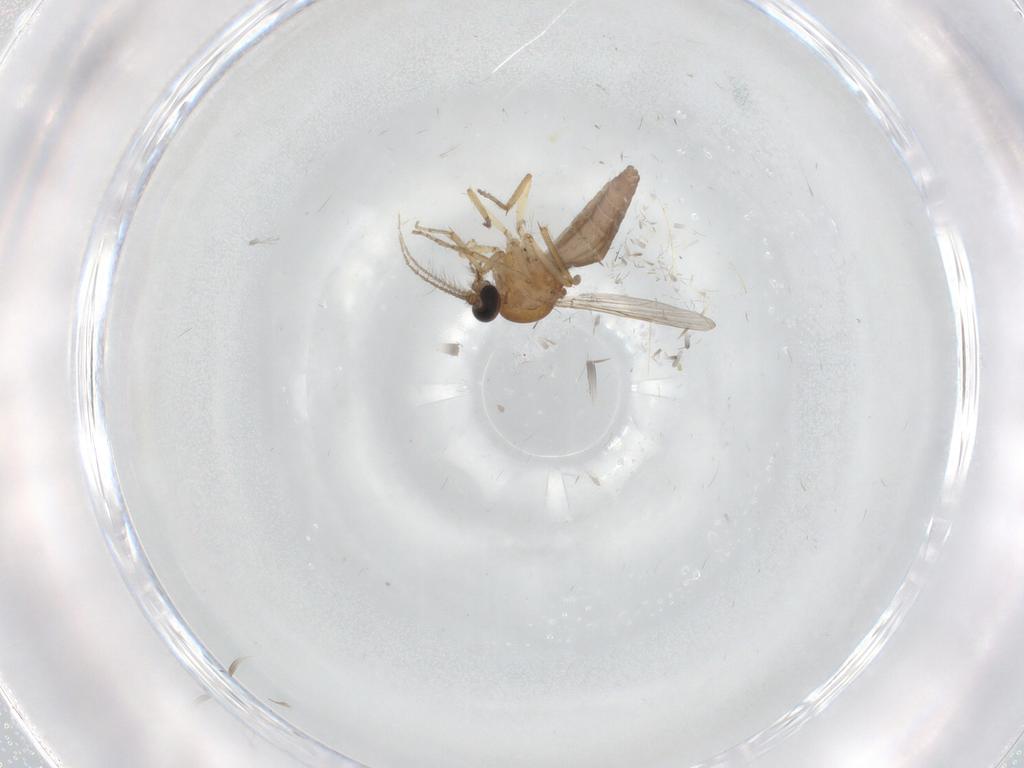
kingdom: Animalia
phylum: Arthropoda
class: Insecta
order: Diptera
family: Ceratopogonidae
